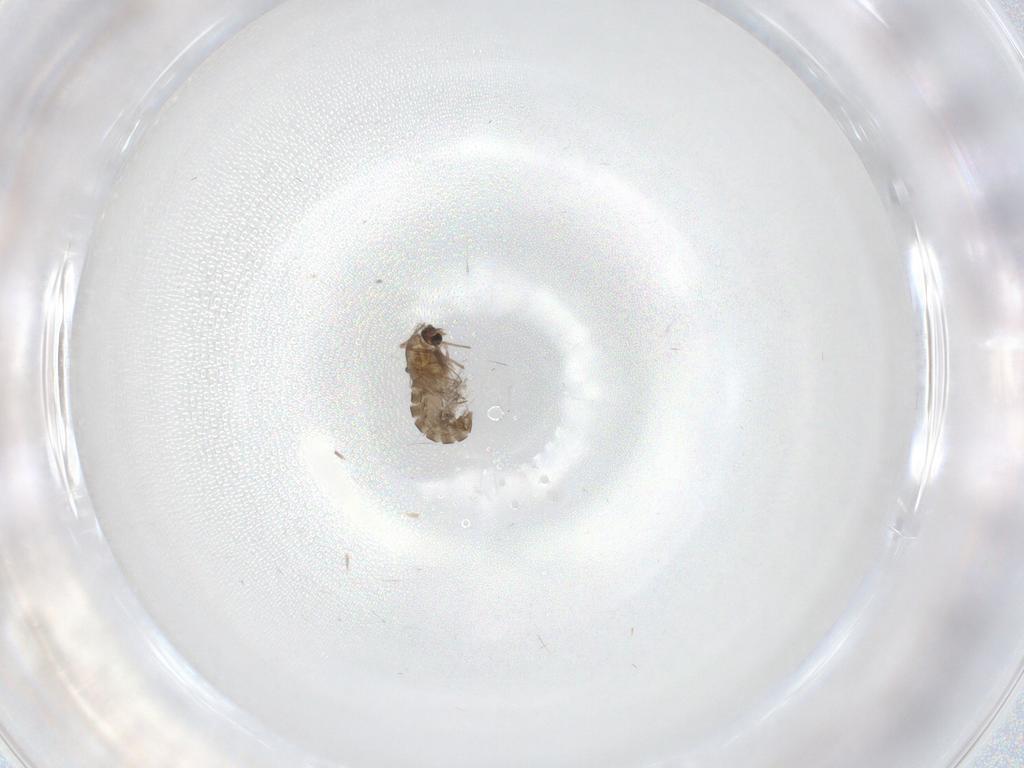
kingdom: Animalia
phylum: Arthropoda
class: Insecta
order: Diptera
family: Chironomidae
